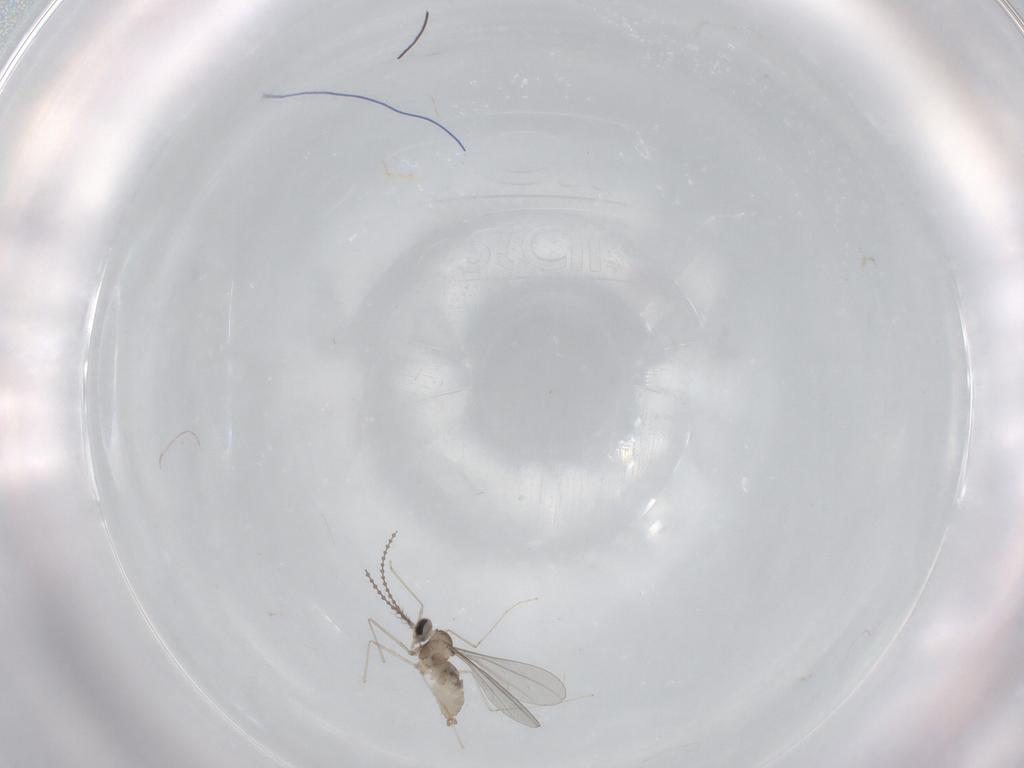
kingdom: Animalia
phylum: Arthropoda
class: Insecta
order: Diptera
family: Cecidomyiidae
